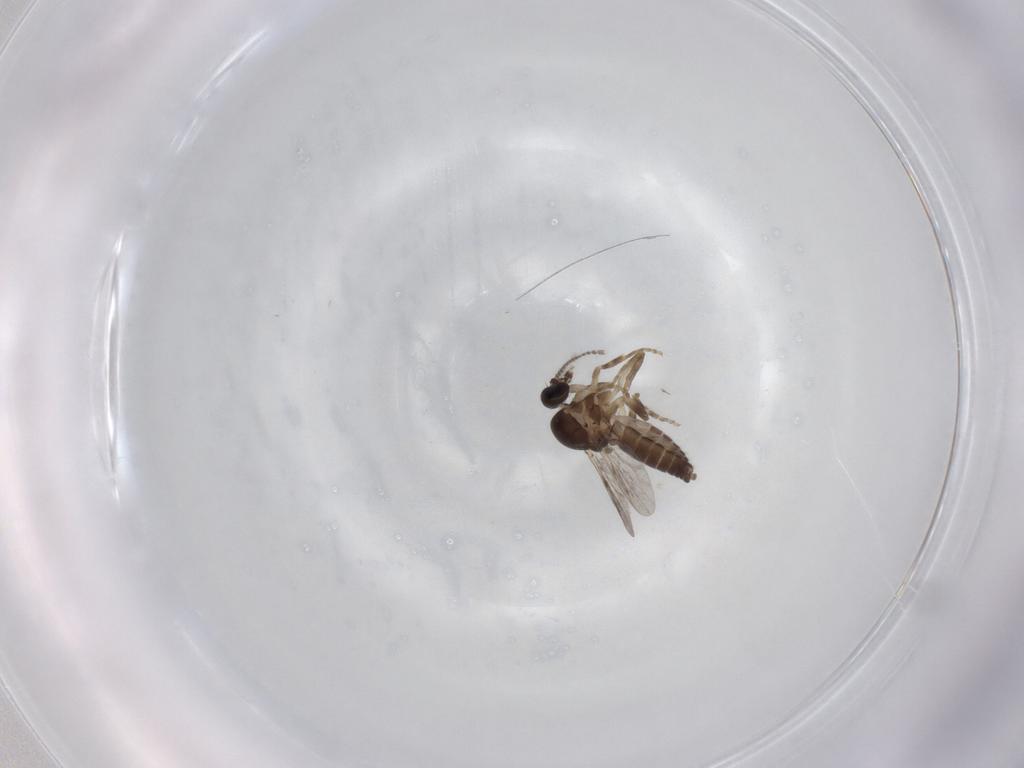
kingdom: Animalia
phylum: Arthropoda
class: Insecta
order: Diptera
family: Ceratopogonidae
